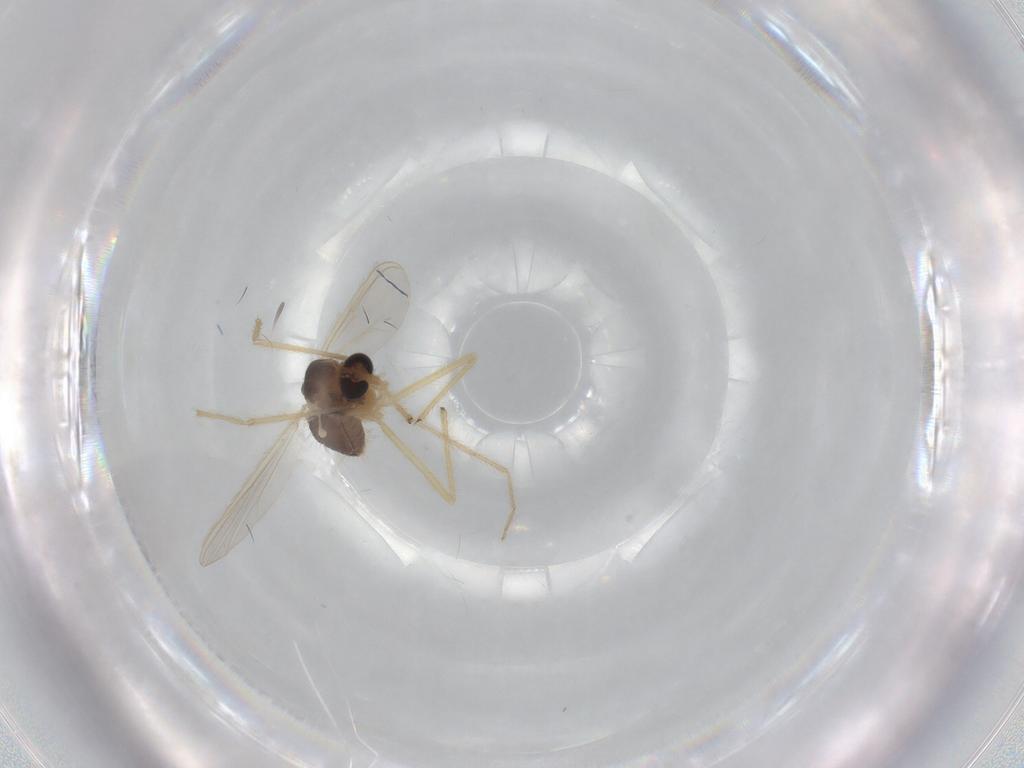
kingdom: Animalia
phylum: Arthropoda
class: Insecta
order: Diptera
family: Chironomidae
